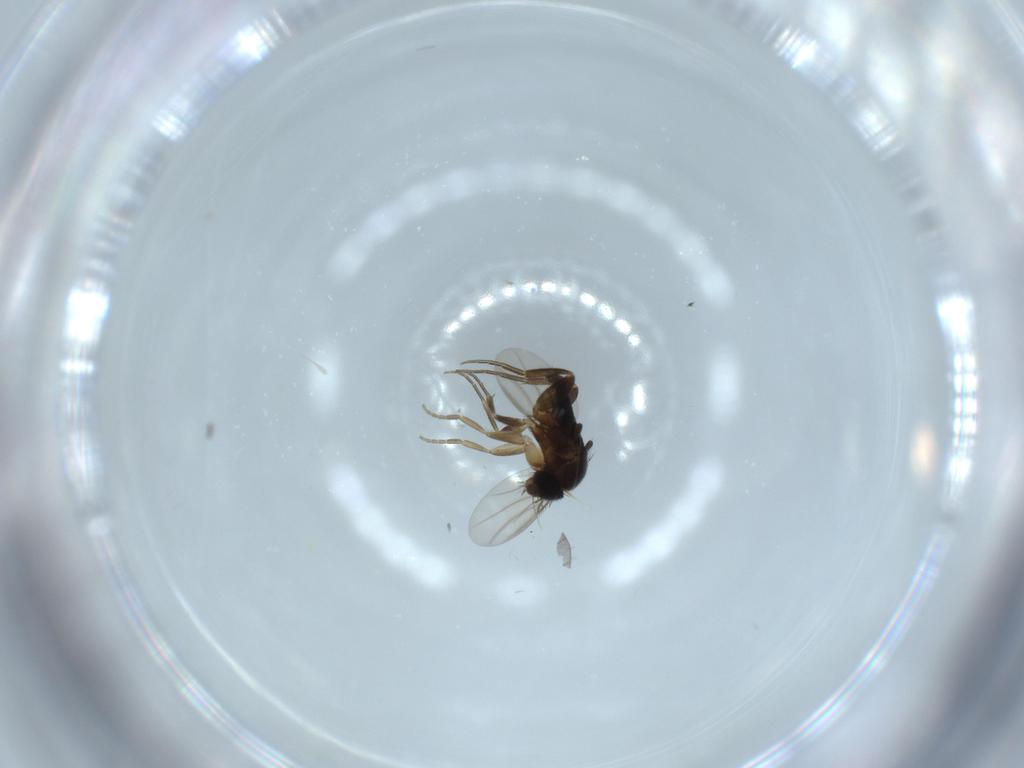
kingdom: Animalia
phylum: Arthropoda
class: Insecta
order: Diptera
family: Phoridae
